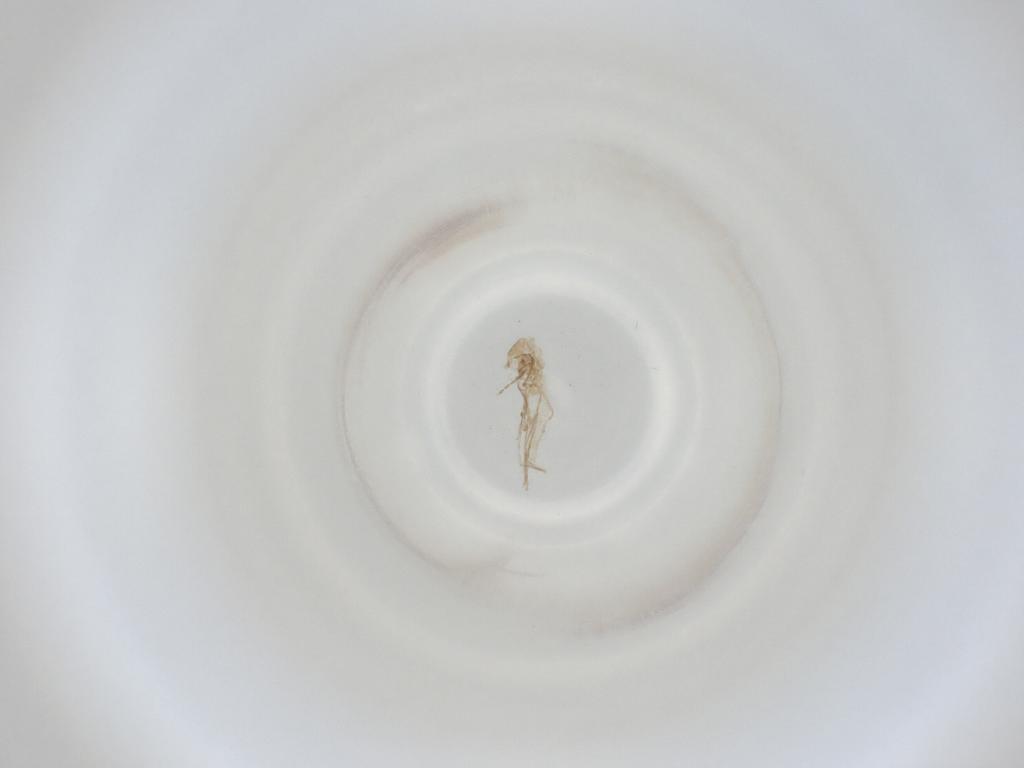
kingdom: Animalia
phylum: Arthropoda
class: Insecta
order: Diptera
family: Cecidomyiidae
